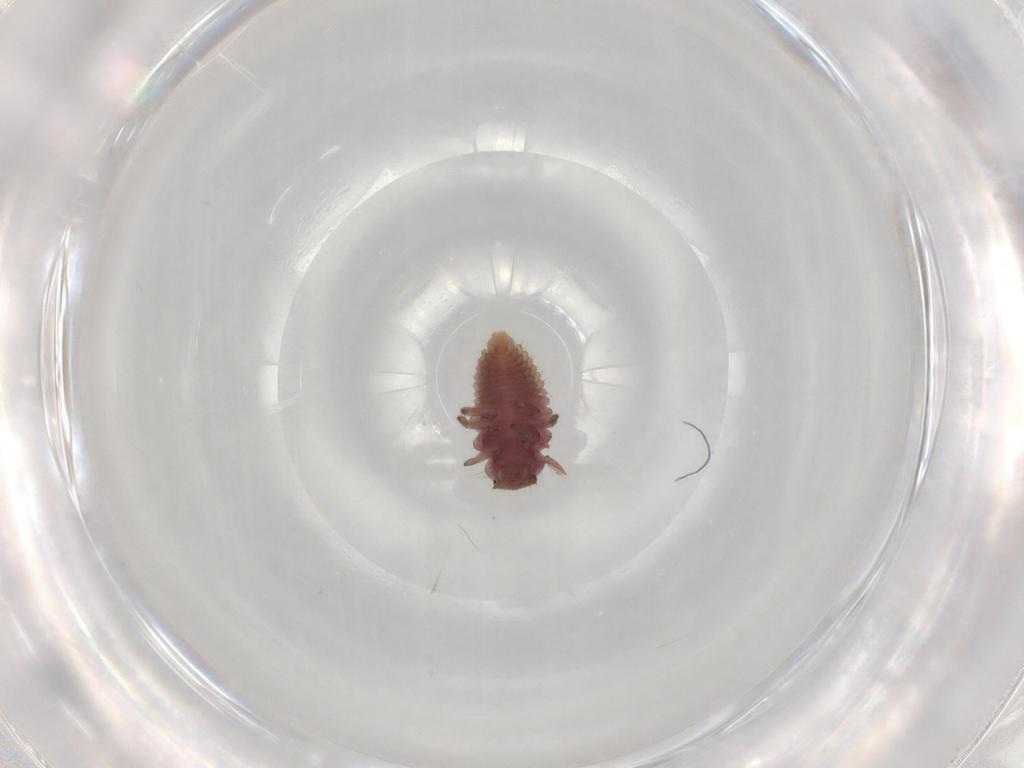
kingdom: Animalia
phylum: Arthropoda
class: Insecta
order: Coleoptera
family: Coccinellidae
